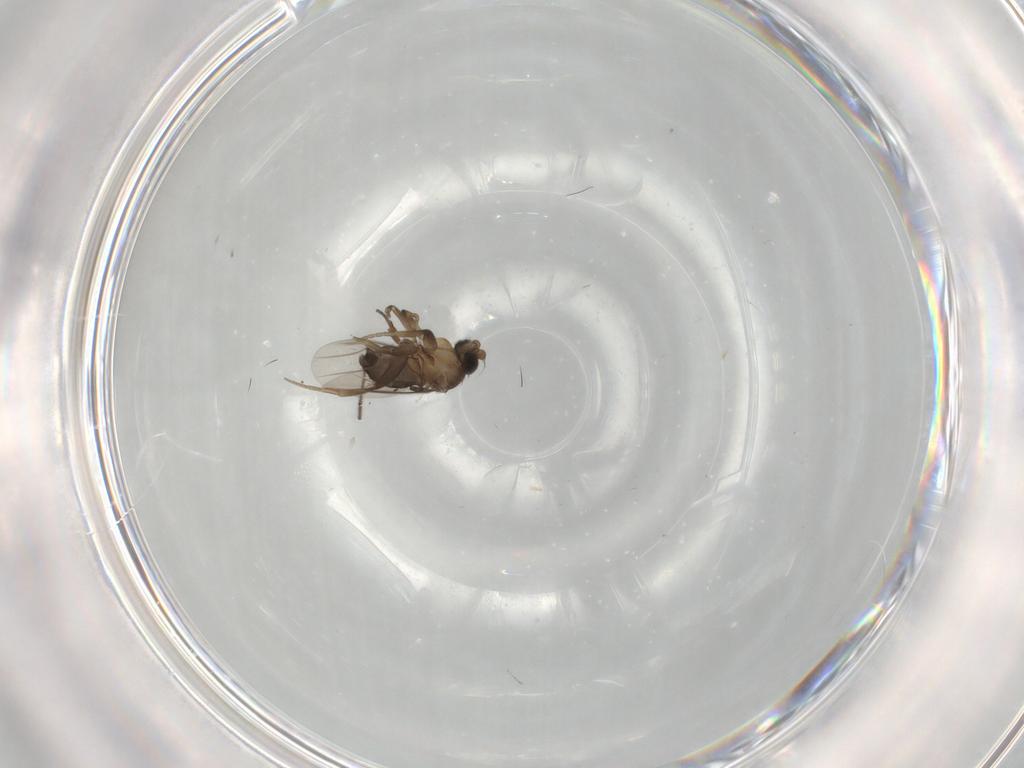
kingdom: Animalia
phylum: Arthropoda
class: Insecta
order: Diptera
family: Phoridae
